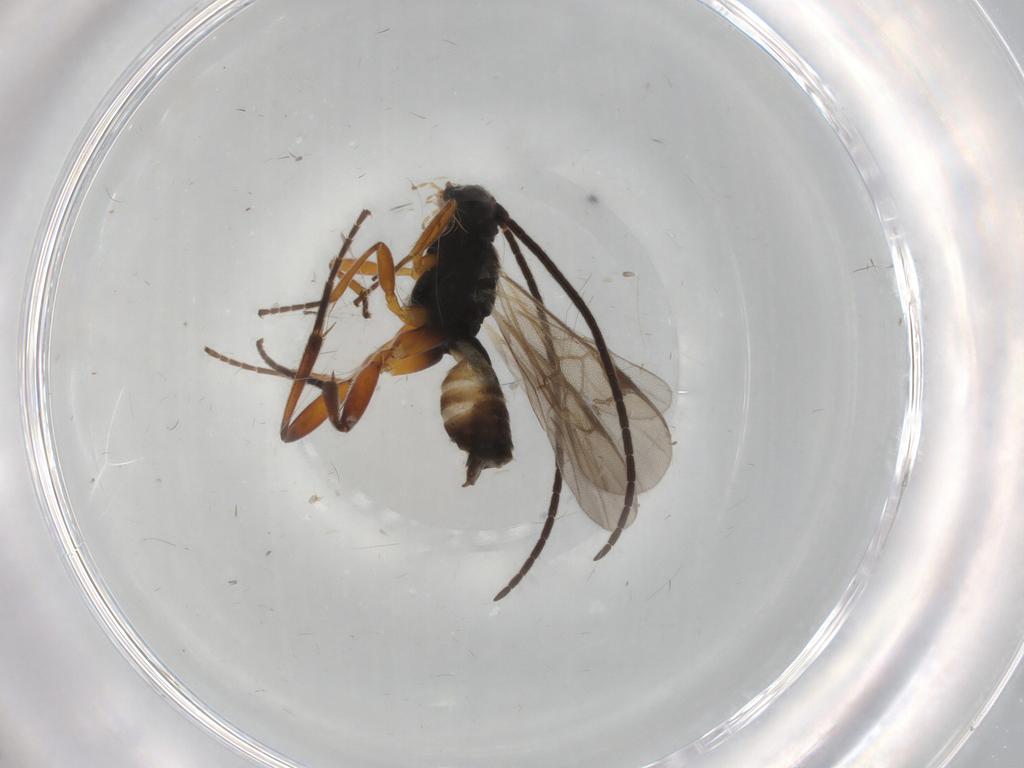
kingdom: Animalia
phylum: Arthropoda
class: Insecta
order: Hymenoptera
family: Braconidae
